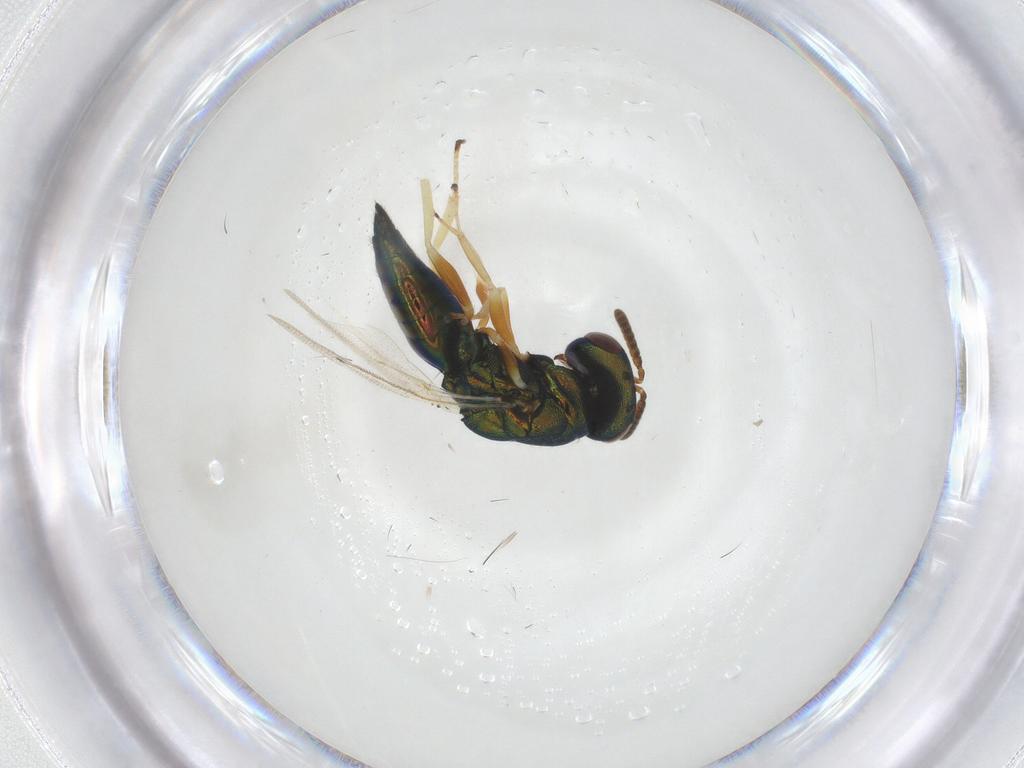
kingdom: Animalia
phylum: Arthropoda
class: Insecta
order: Hymenoptera
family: Pteromalidae
